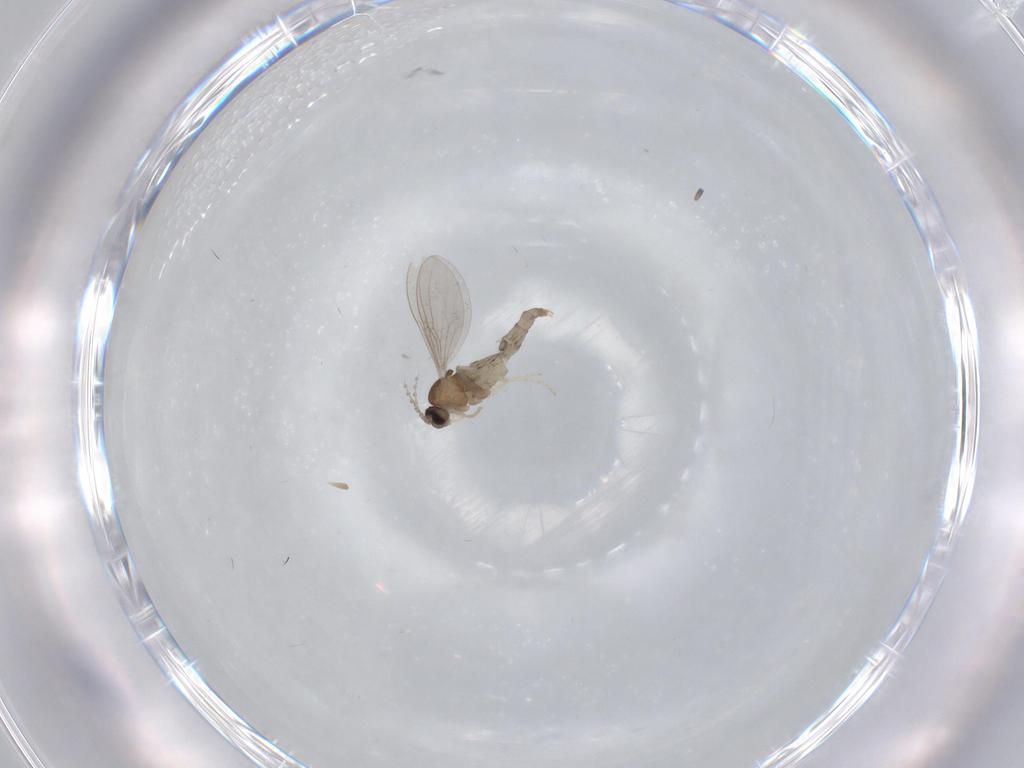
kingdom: Animalia
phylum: Arthropoda
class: Insecta
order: Diptera
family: Cecidomyiidae
